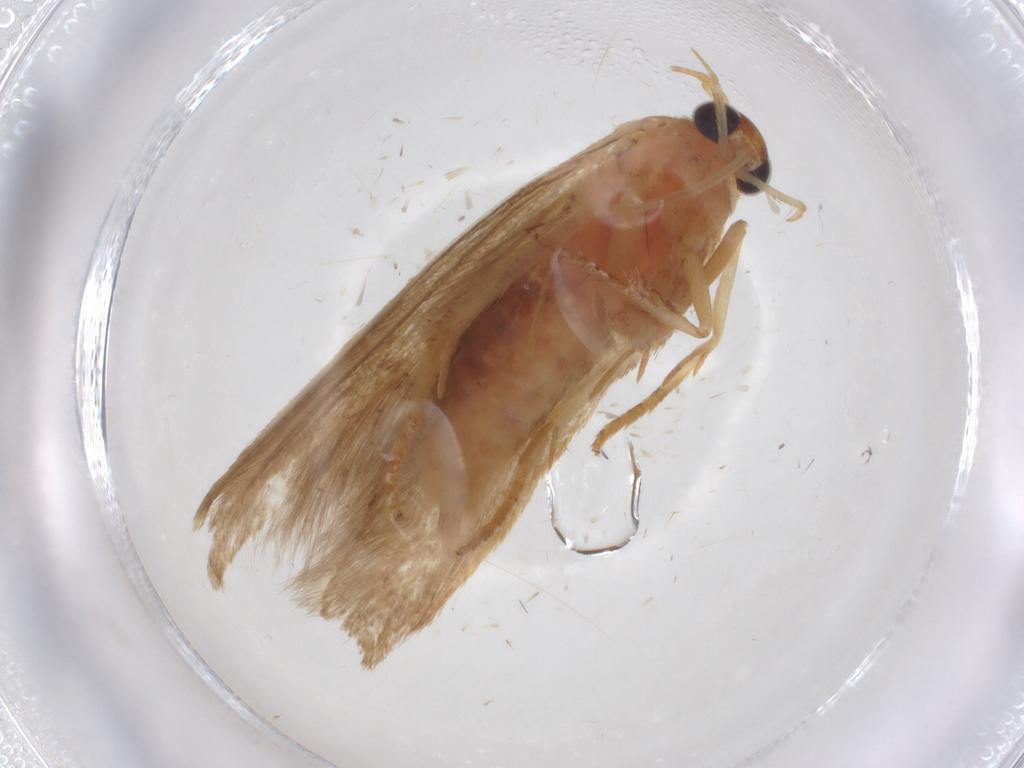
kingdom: Animalia
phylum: Arthropoda
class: Insecta
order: Lepidoptera
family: Blastobasidae
